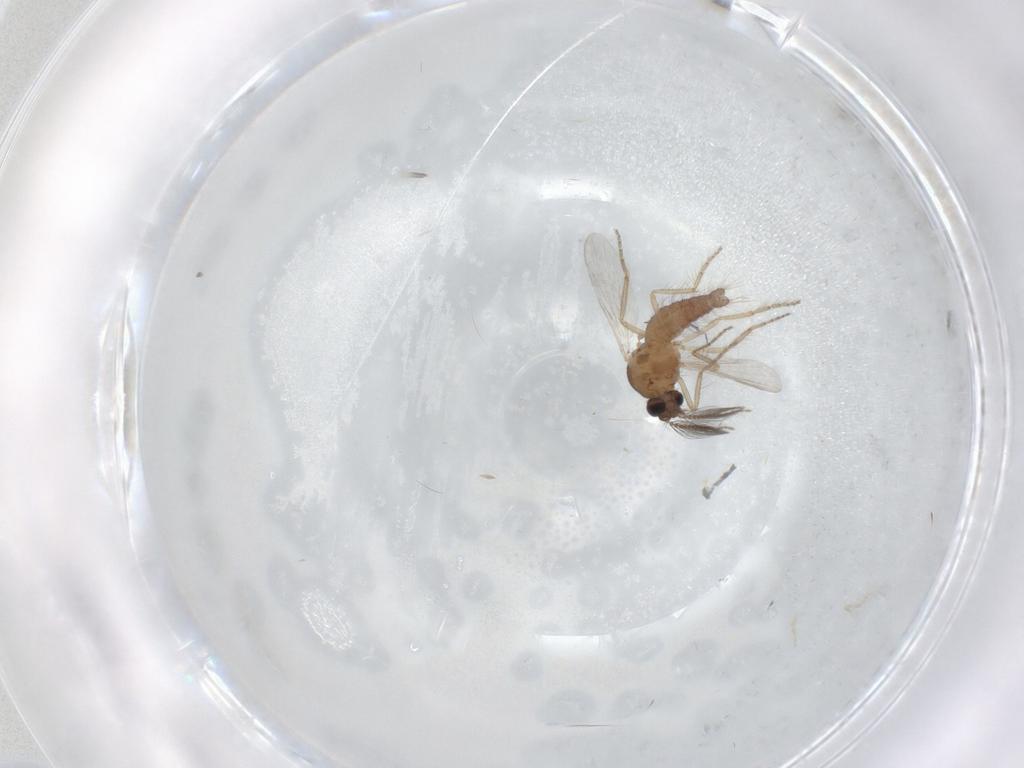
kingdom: Animalia
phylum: Arthropoda
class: Insecta
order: Diptera
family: Ceratopogonidae
